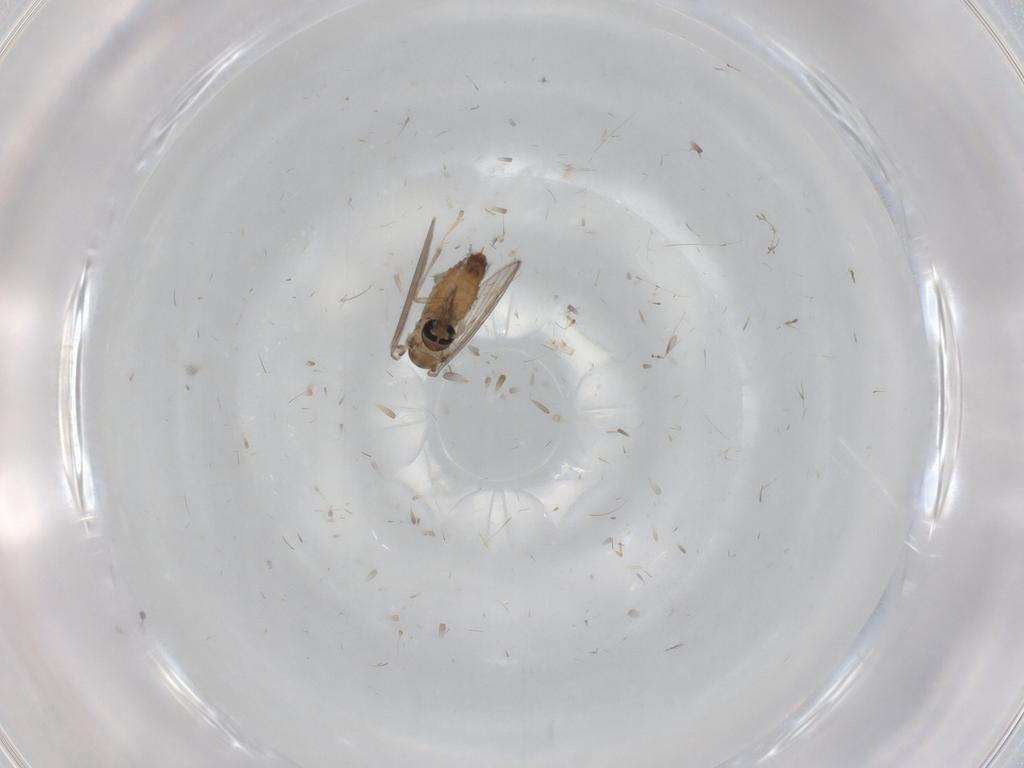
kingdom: Animalia
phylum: Arthropoda
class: Insecta
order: Diptera
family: Psychodidae
